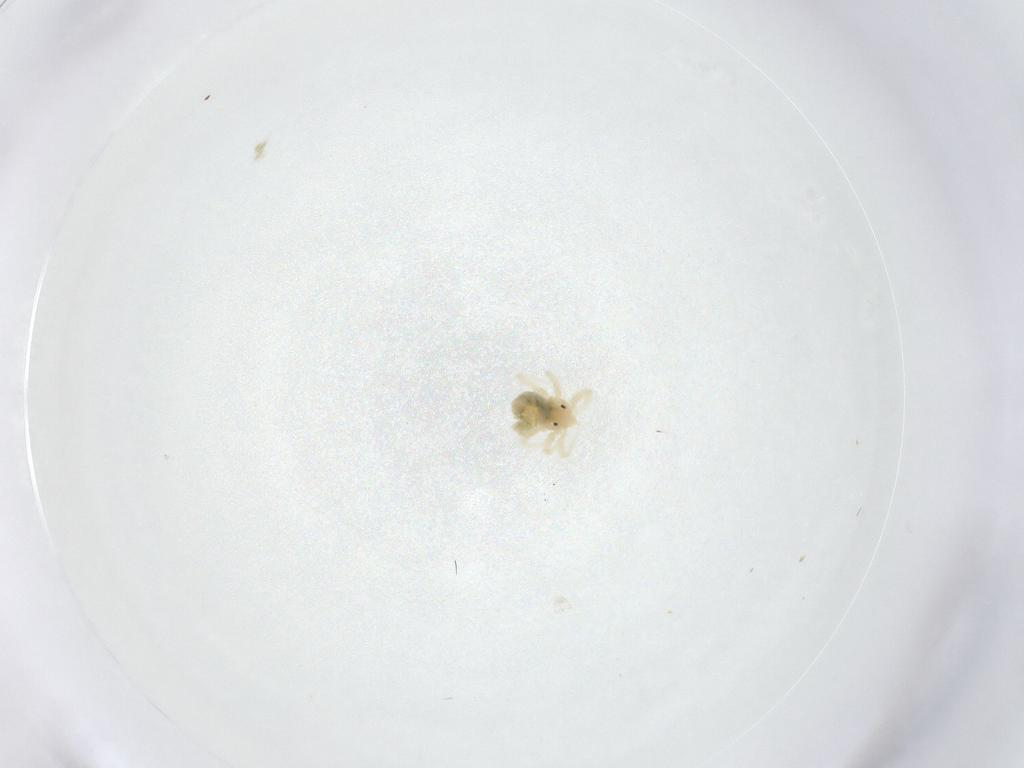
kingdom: Animalia
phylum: Arthropoda
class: Arachnida
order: Trombidiformes
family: Anystidae
